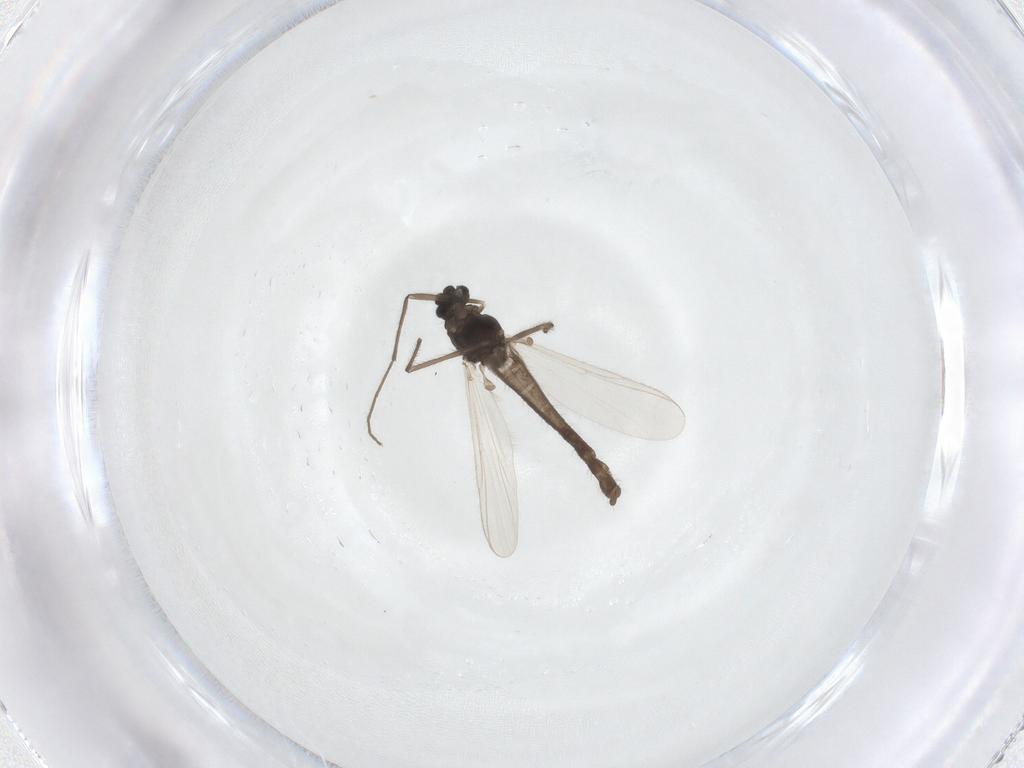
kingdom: Animalia
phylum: Arthropoda
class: Insecta
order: Diptera
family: Chironomidae
